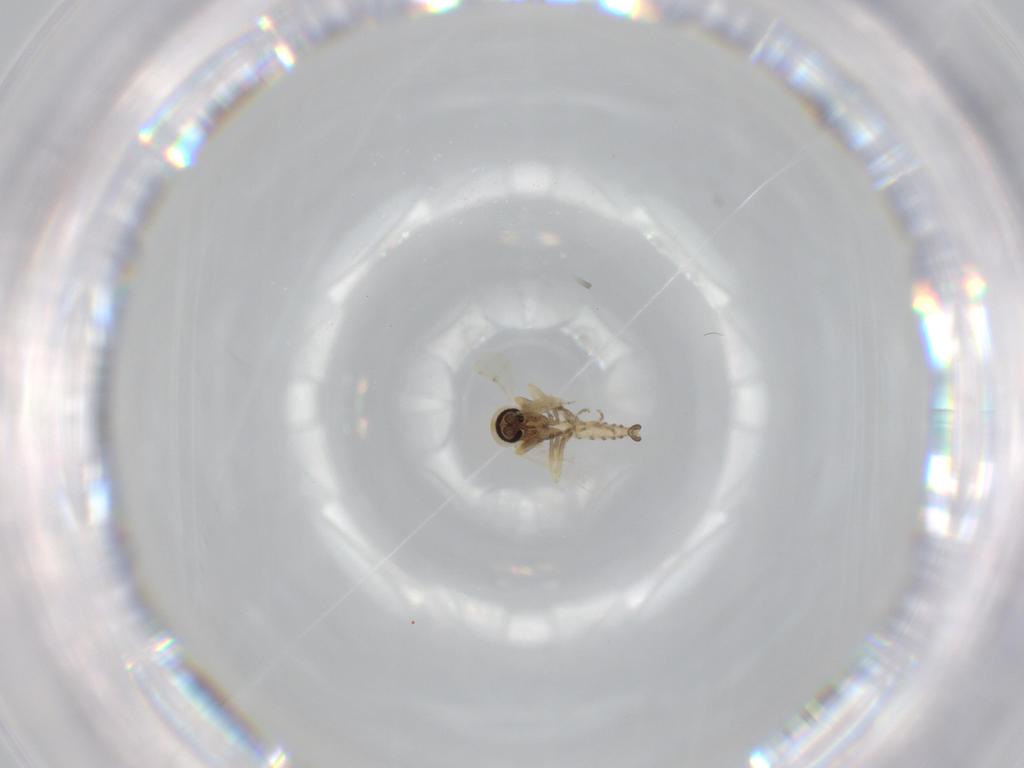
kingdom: Animalia
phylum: Arthropoda
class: Insecta
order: Diptera
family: Ceratopogonidae
